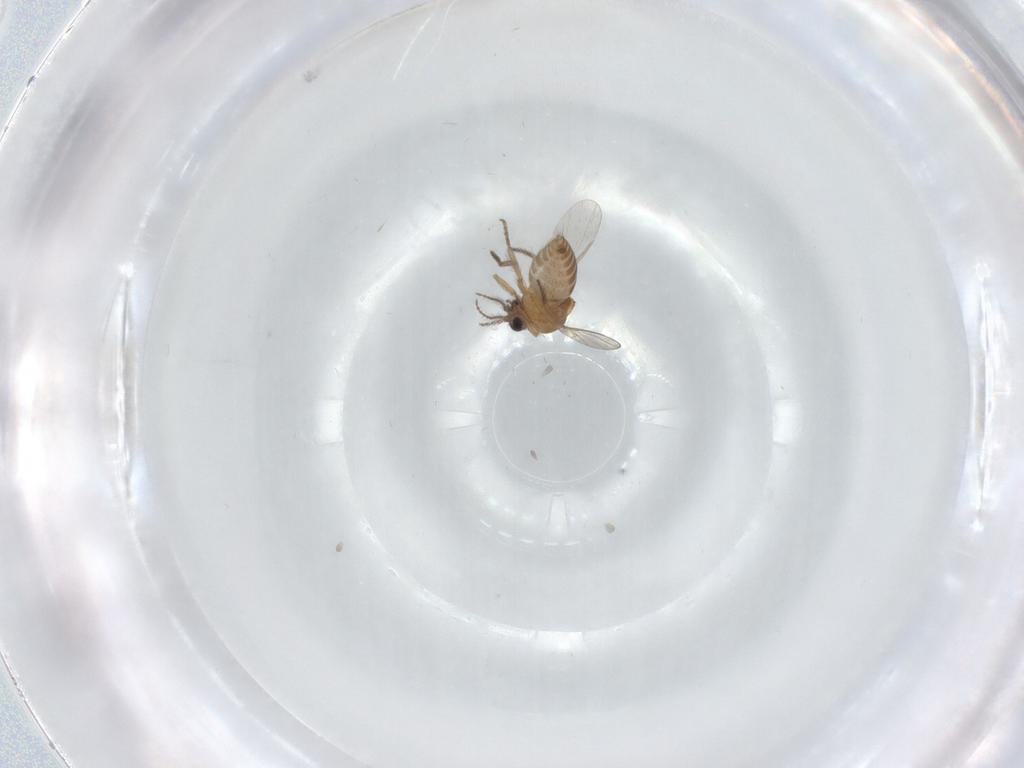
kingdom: Animalia
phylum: Arthropoda
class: Insecta
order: Diptera
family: Ceratopogonidae
